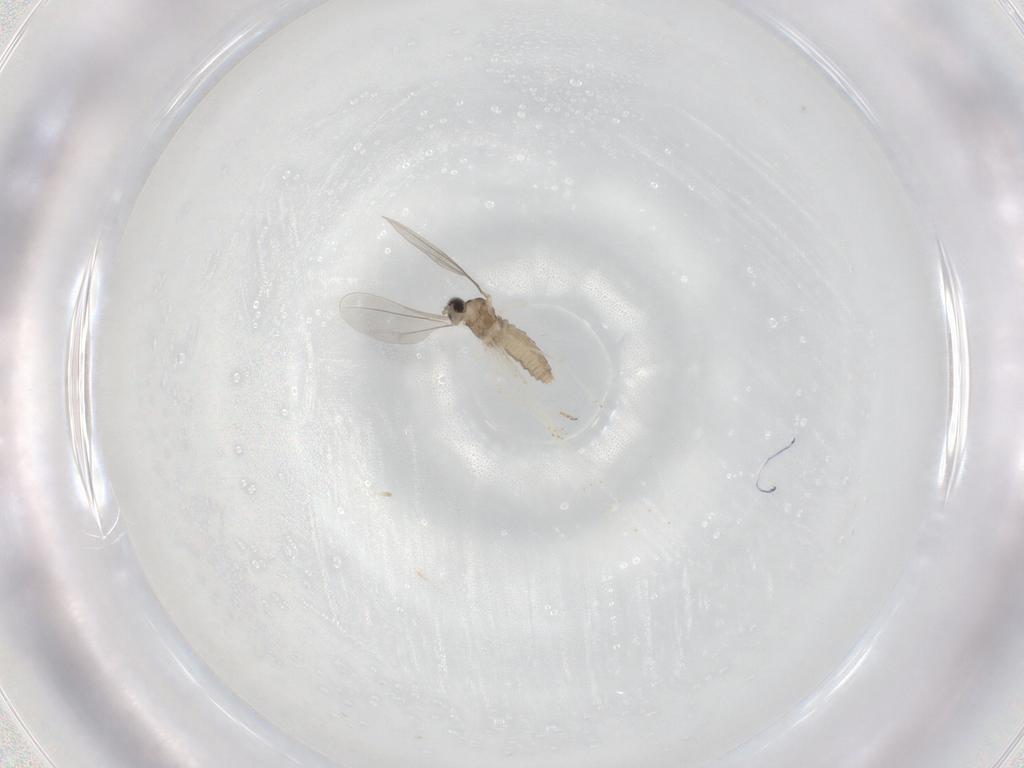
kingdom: Animalia
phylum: Arthropoda
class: Insecta
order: Diptera
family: Cecidomyiidae
